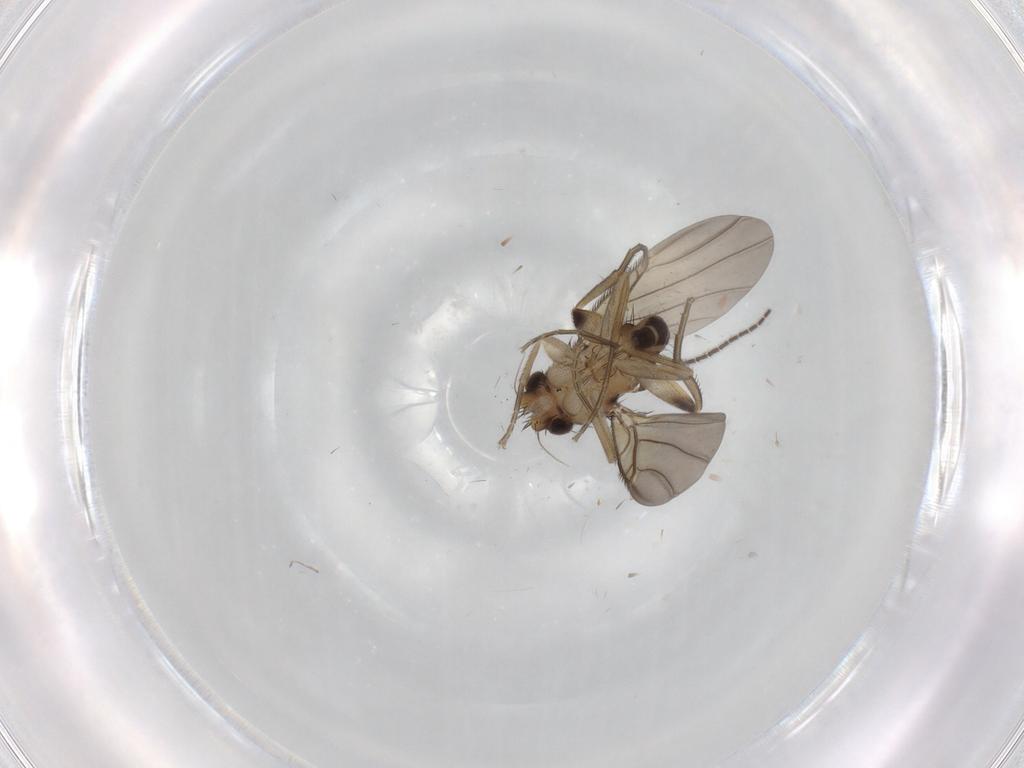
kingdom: Animalia
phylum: Arthropoda
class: Insecta
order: Diptera
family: Phoridae
